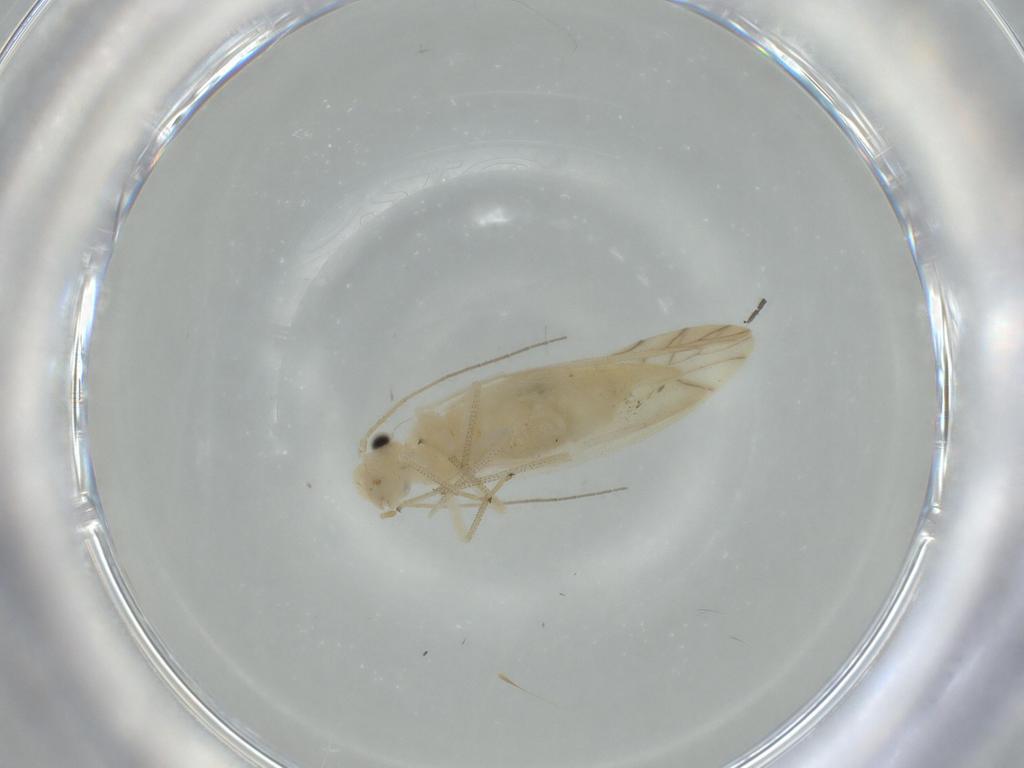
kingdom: Animalia
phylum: Arthropoda
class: Insecta
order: Psocodea
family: Caeciliusidae
